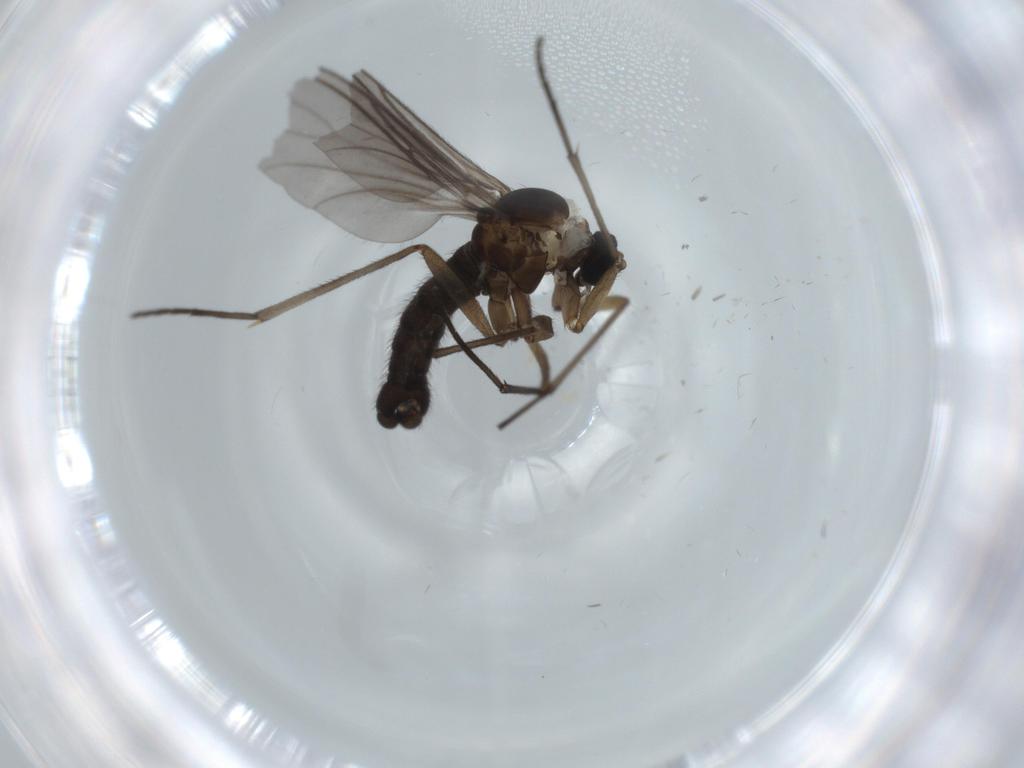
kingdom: Animalia
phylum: Arthropoda
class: Insecta
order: Diptera
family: Sciaridae
